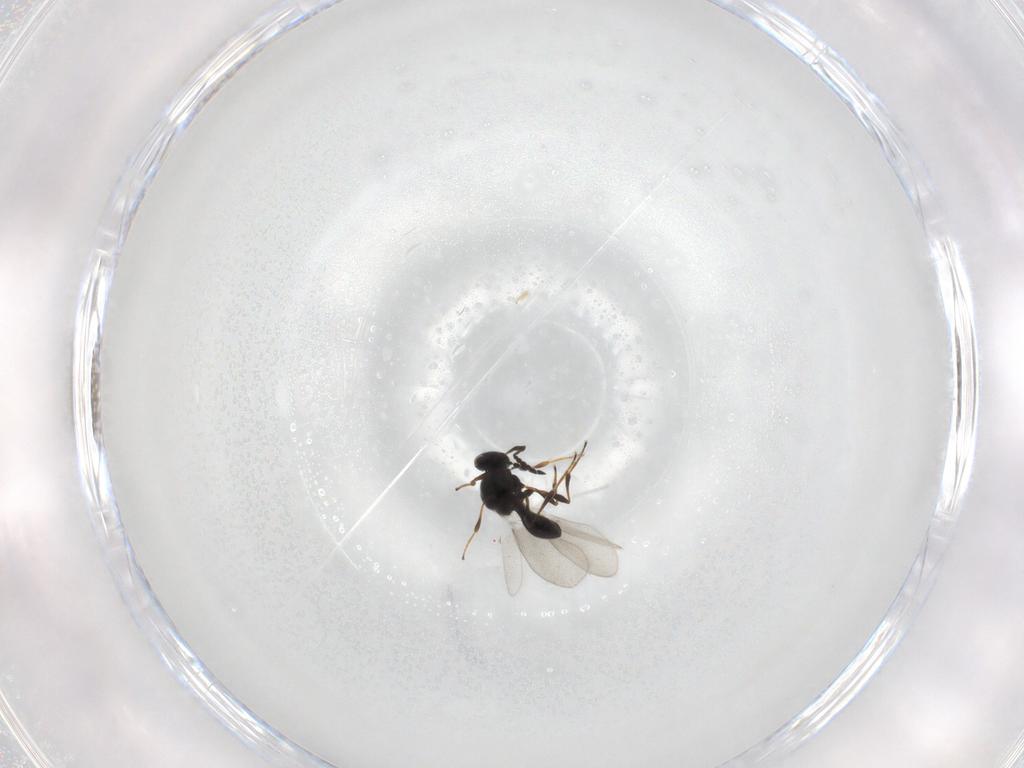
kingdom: Animalia
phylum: Arthropoda
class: Insecta
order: Hymenoptera
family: Platygastridae
